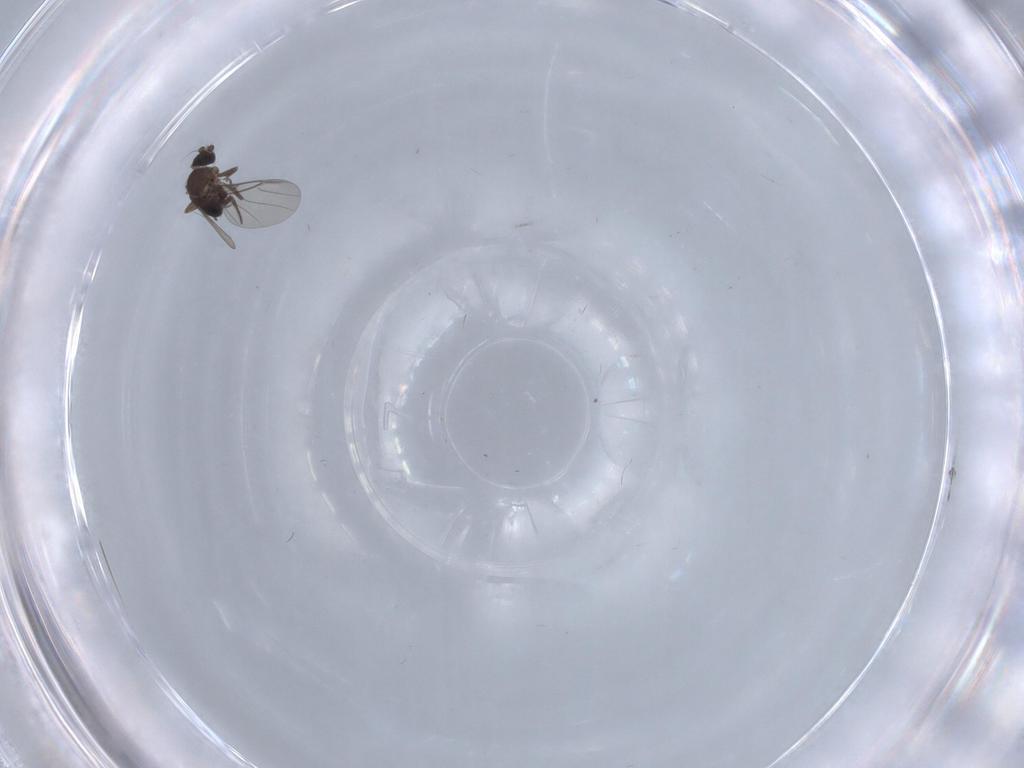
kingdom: Animalia
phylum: Arthropoda
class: Insecta
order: Diptera
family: Phoridae
